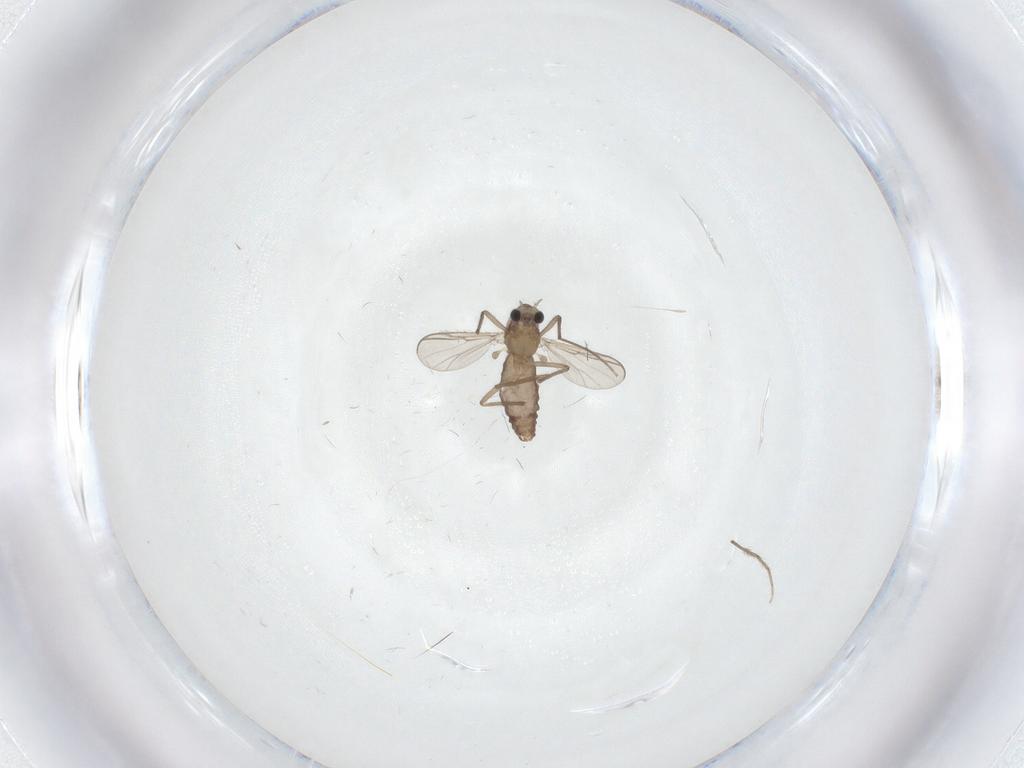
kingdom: Animalia
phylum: Arthropoda
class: Insecta
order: Diptera
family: Chironomidae
